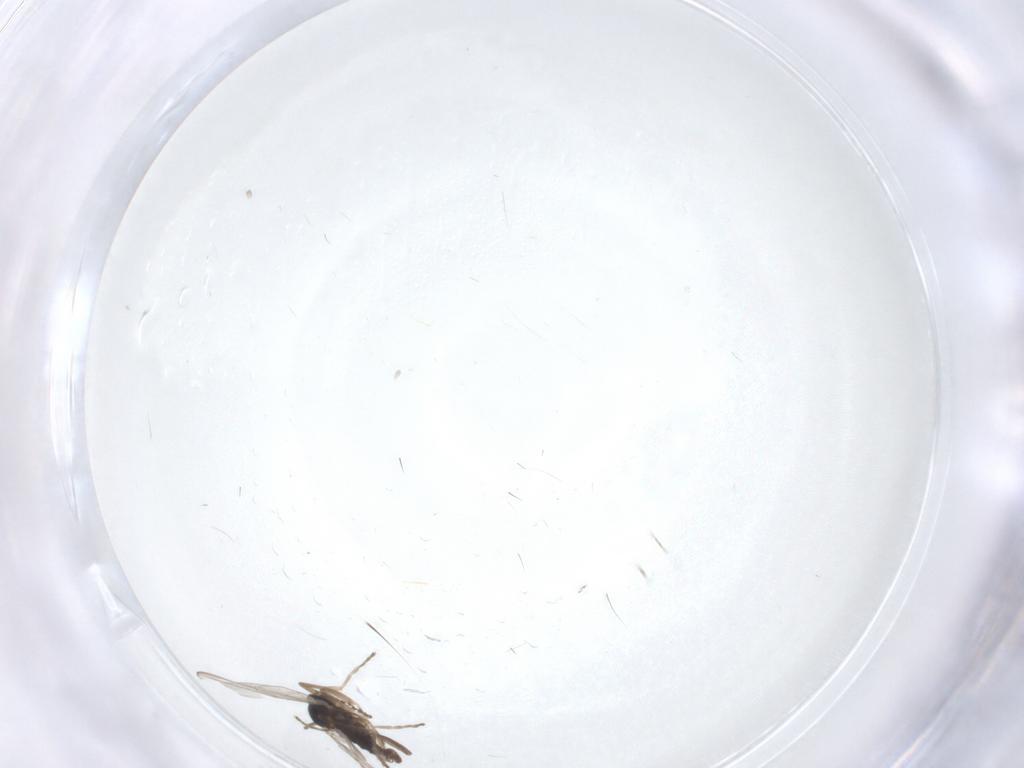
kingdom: Animalia
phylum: Arthropoda
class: Insecta
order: Diptera
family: Cecidomyiidae
